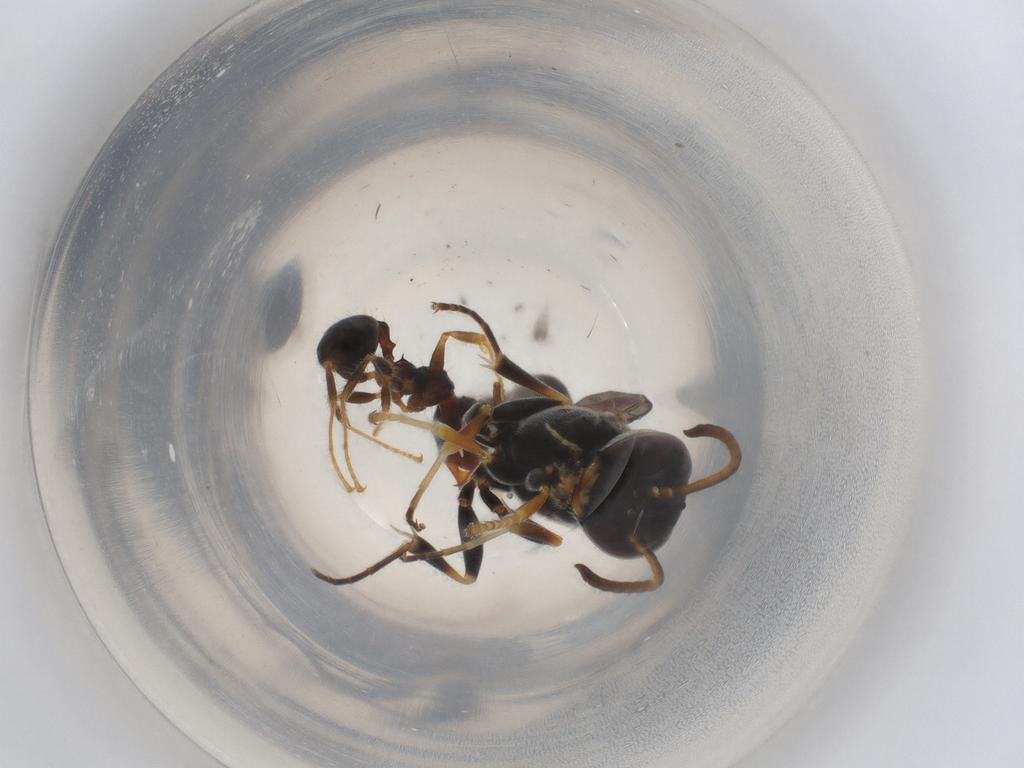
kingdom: Animalia
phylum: Arthropoda
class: Insecta
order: Hymenoptera
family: Crabronidae
